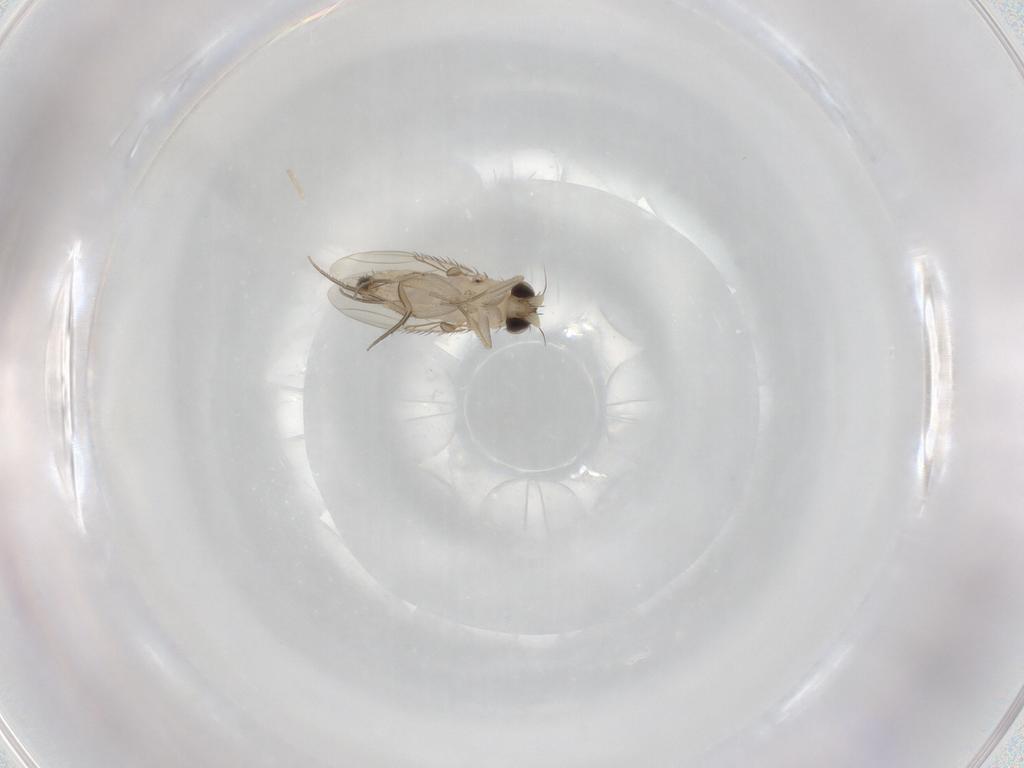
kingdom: Animalia
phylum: Arthropoda
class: Insecta
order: Diptera
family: Phoridae
